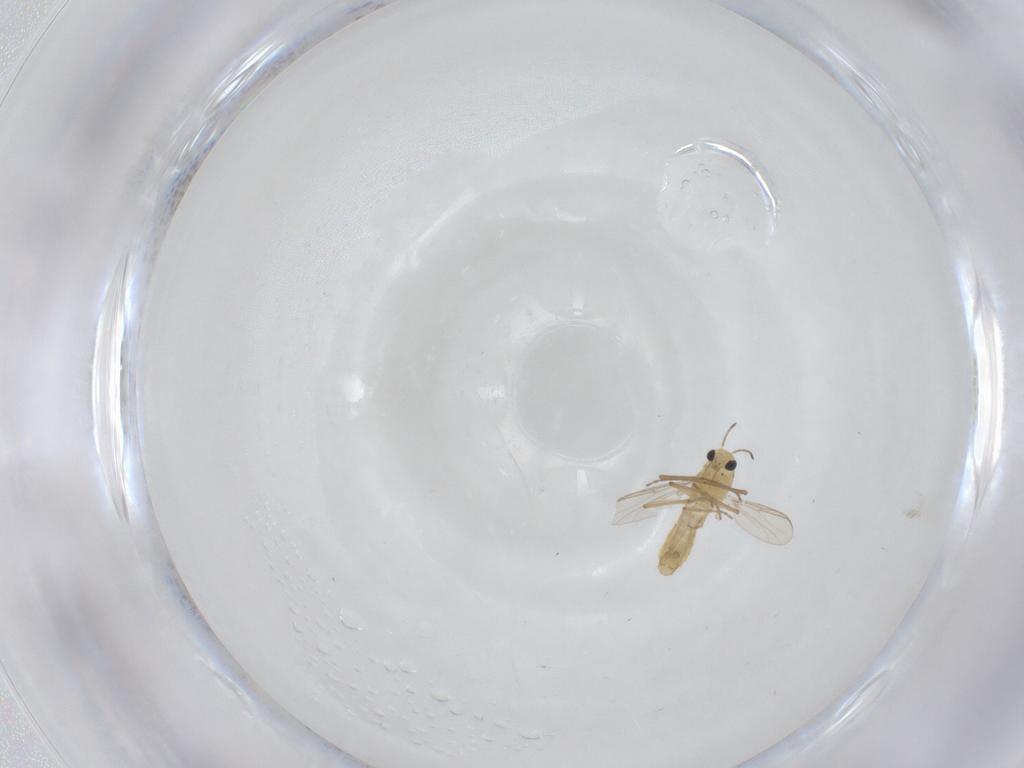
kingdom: Animalia
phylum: Arthropoda
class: Insecta
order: Diptera
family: Chironomidae
